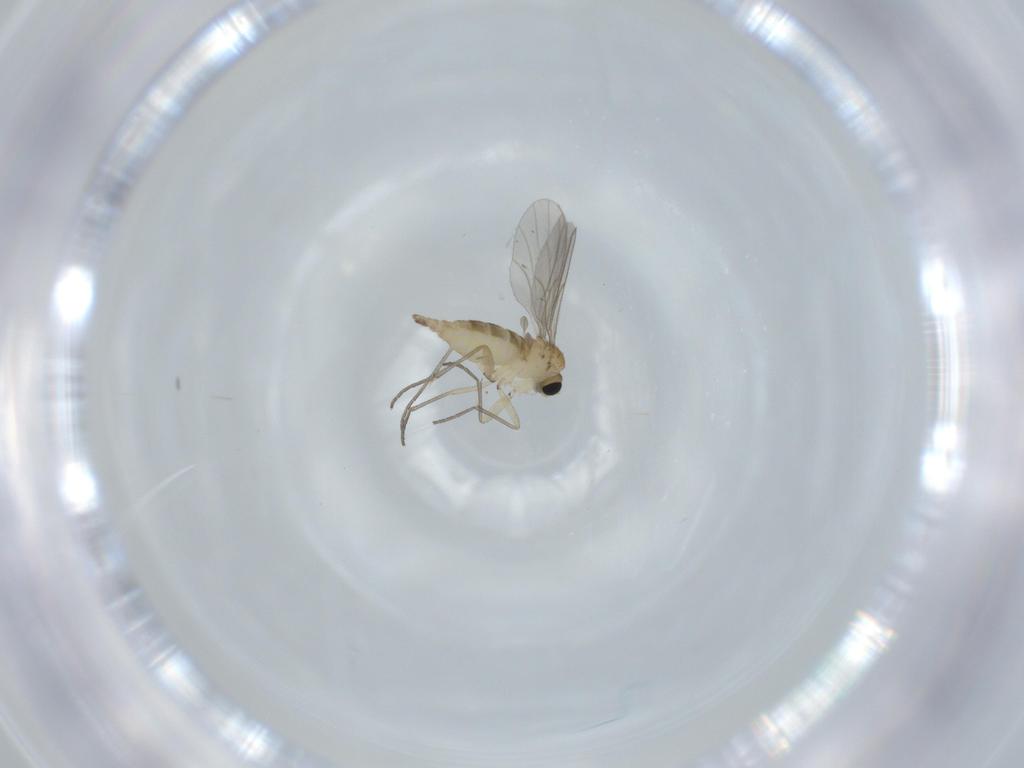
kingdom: Animalia
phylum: Arthropoda
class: Insecta
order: Diptera
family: Sciaridae
